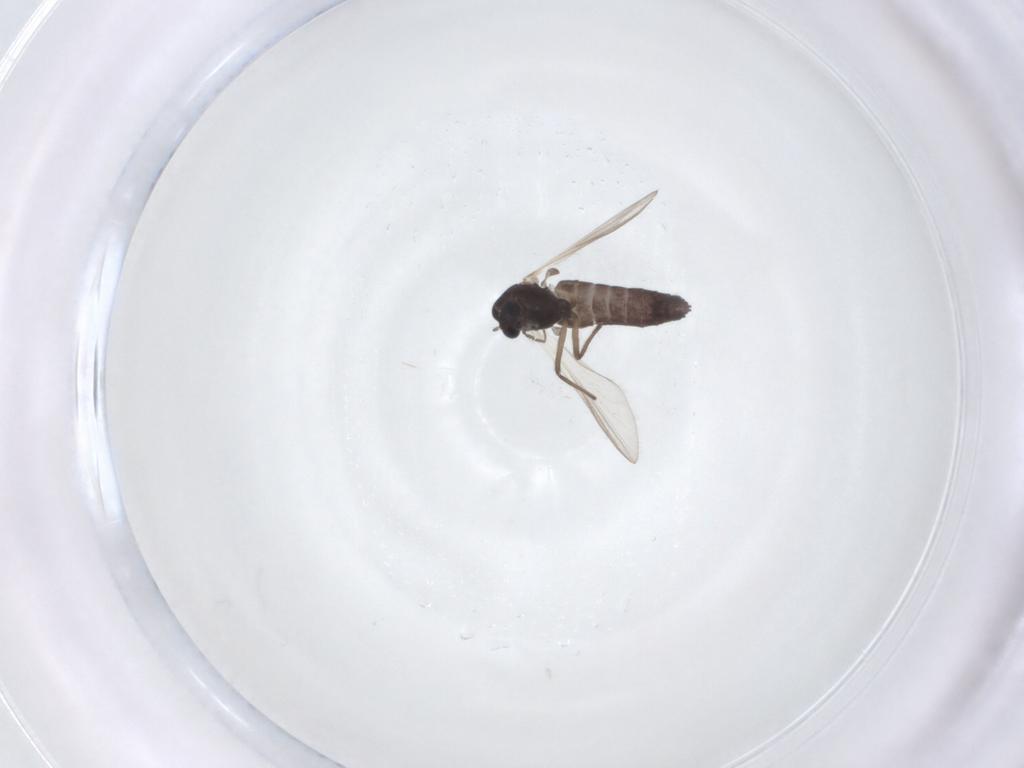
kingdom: Animalia
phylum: Arthropoda
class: Insecta
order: Diptera
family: Chironomidae
